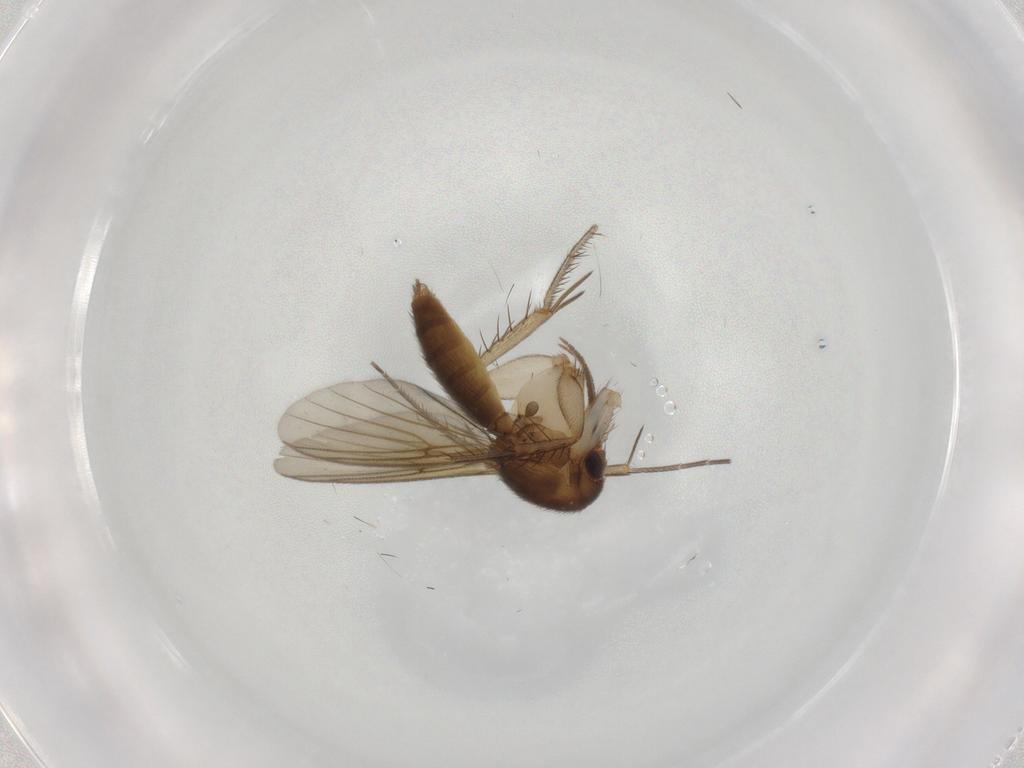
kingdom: Animalia
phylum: Arthropoda
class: Insecta
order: Diptera
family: Mycetophilidae
